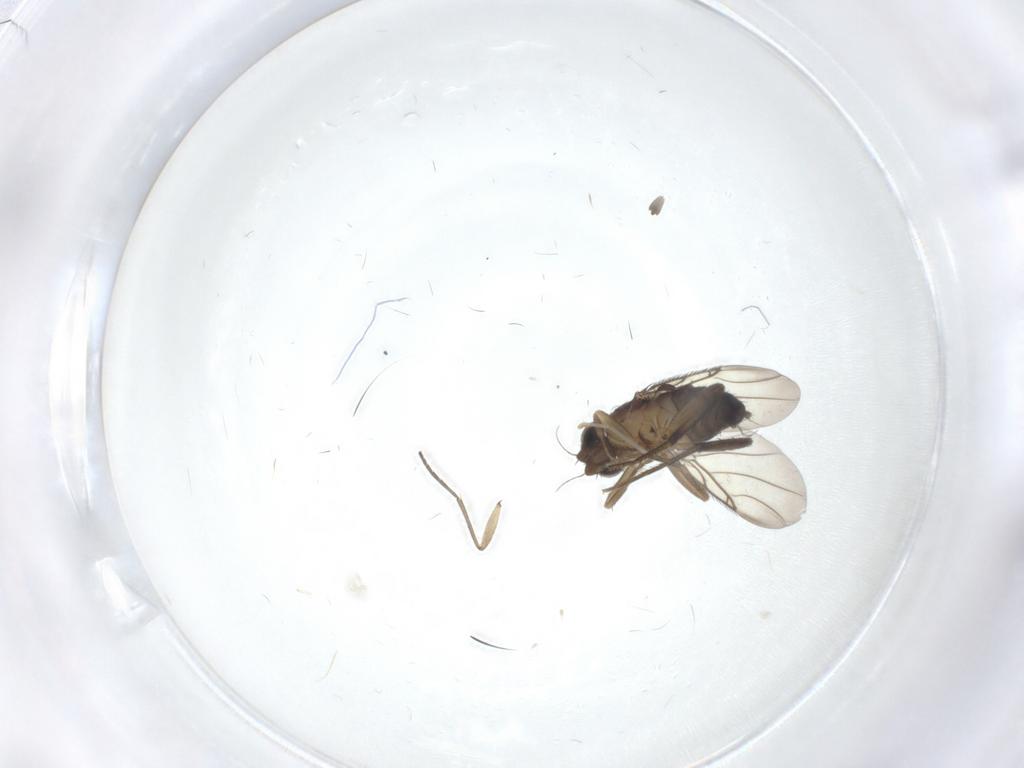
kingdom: Animalia
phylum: Arthropoda
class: Insecta
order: Diptera
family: Phoridae
